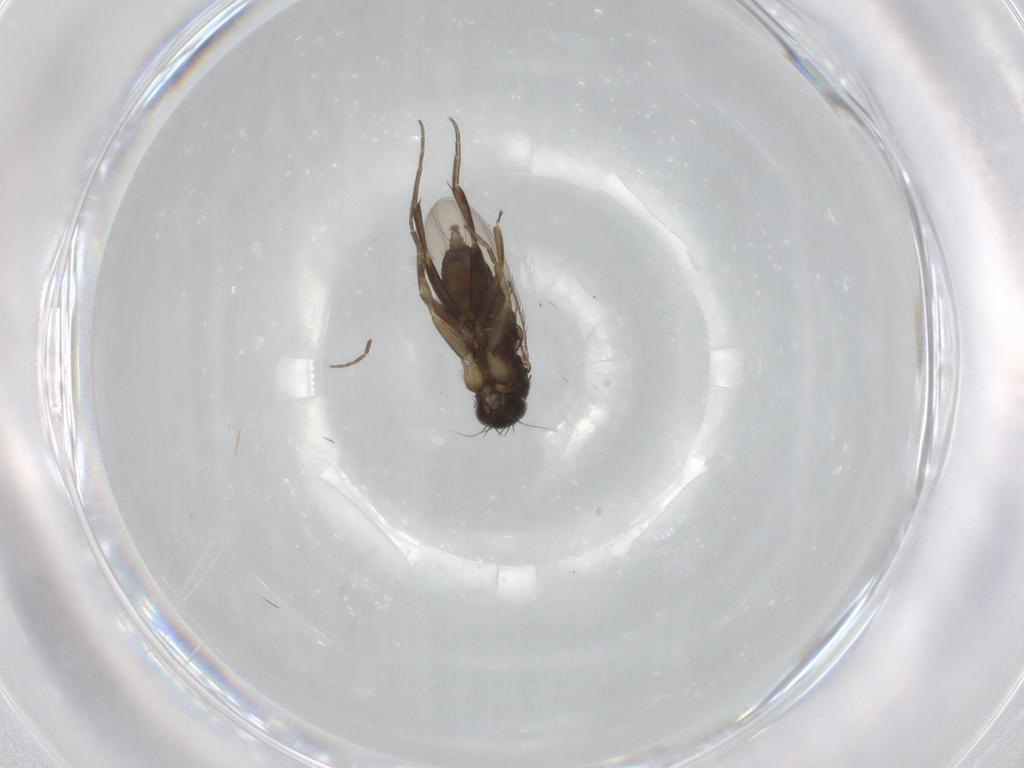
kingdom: Animalia
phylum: Arthropoda
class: Insecta
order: Diptera
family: Phoridae
